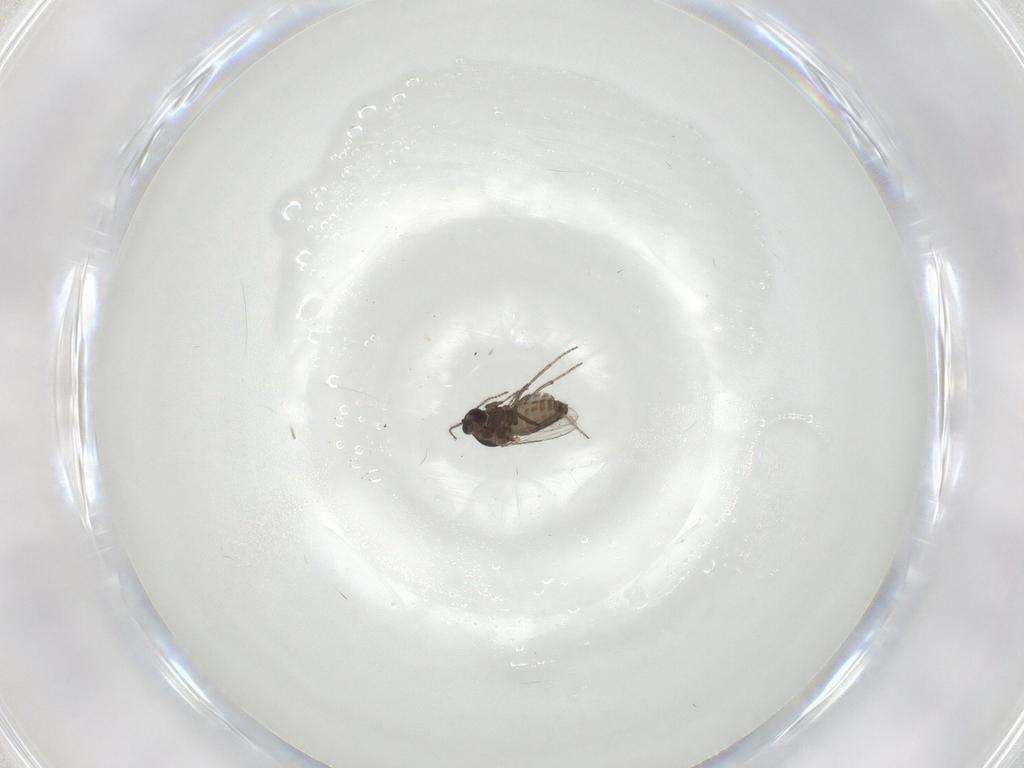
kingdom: Animalia
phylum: Arthropoda
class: Insecta
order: Diptera
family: Ceratopogonidae
